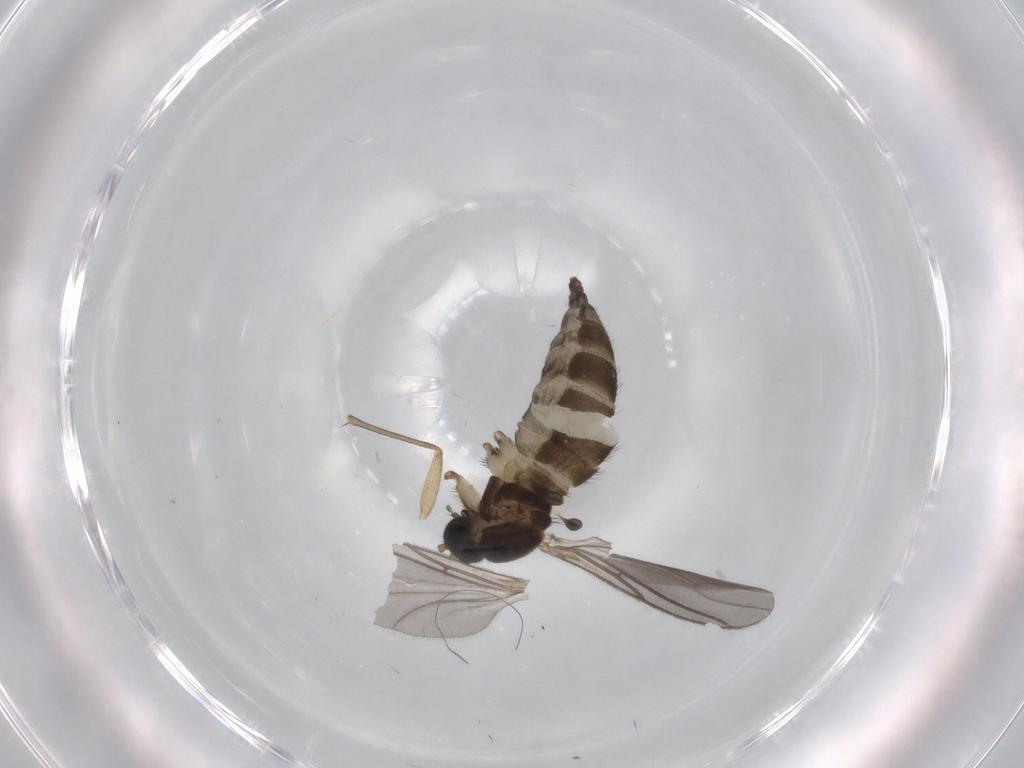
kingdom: Animalia
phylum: Arthropoda
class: Insecta
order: Diptera
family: Sciaridae
